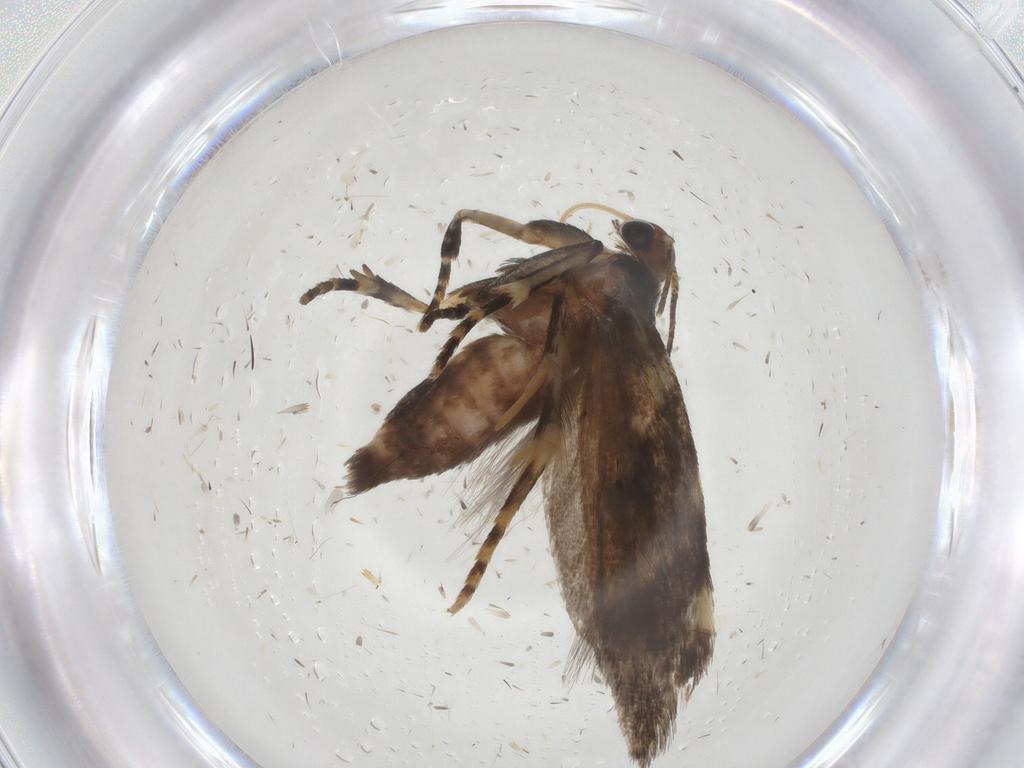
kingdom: Animalia
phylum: Arthropoda
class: Insecta
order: Lepidoptera
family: Gelechiidae
